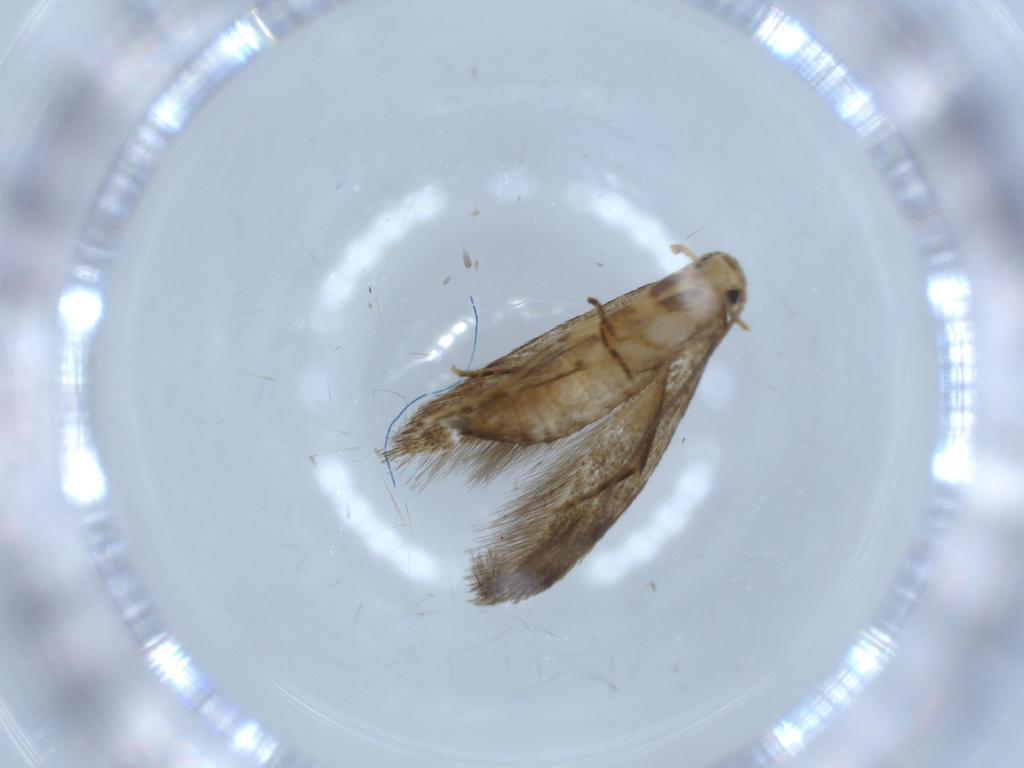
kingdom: Animalia
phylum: Arthropoda
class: Insecta
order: Lepidoptera
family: Tineidae
